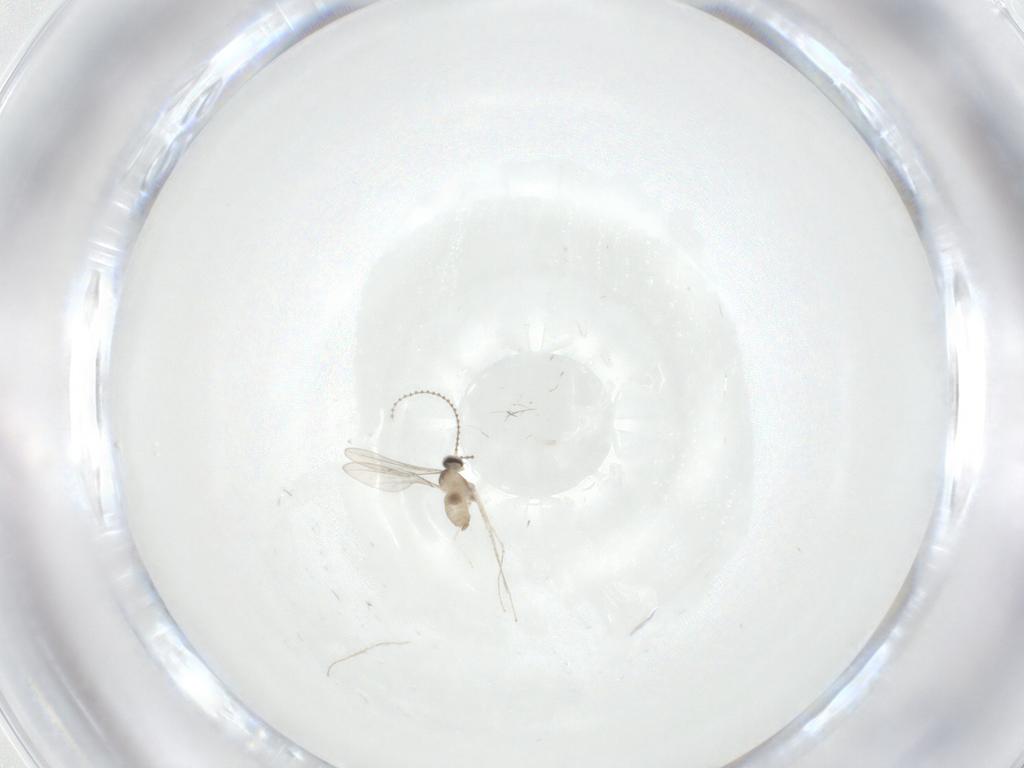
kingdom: Animalia
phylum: Arthropoda
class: Insecta
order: Diptera
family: Cecidomyiidae
